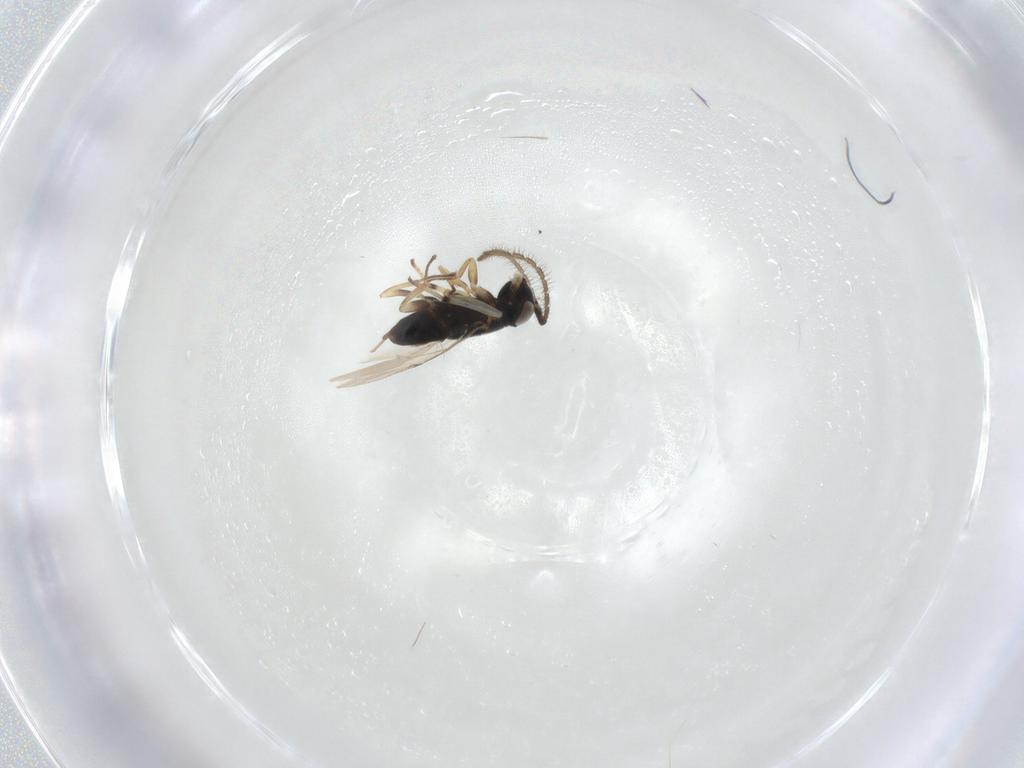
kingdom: Animalia
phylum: Arthropoda
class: Insecta
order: Hymenoptera
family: Encyrtidae
